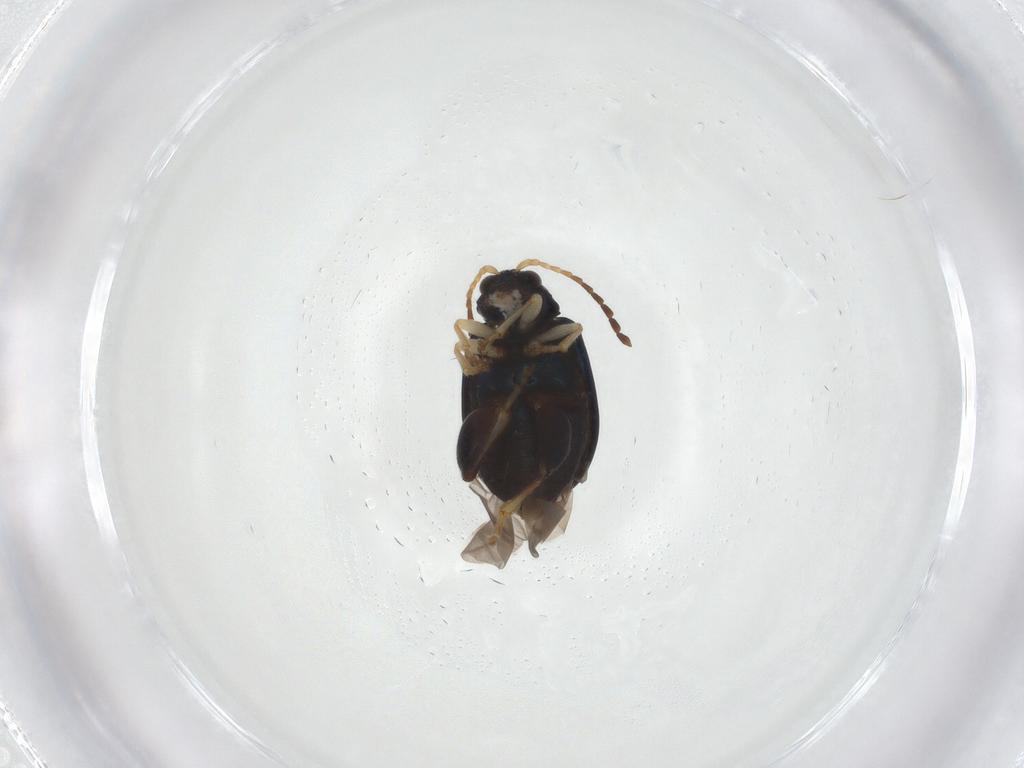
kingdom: Animalia
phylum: Arthropoda
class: Insecta
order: Coleoptera
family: Chrysomelidae
